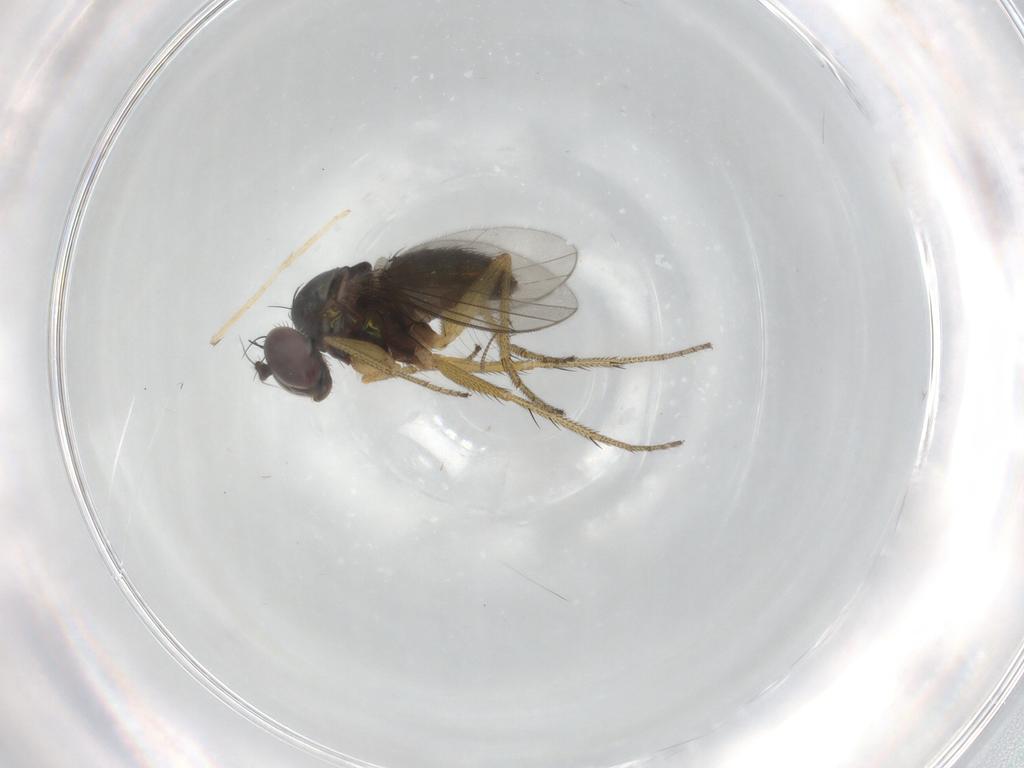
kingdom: Animalia
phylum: Arthropoda
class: Insecta
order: Diptera
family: Chironomidae
